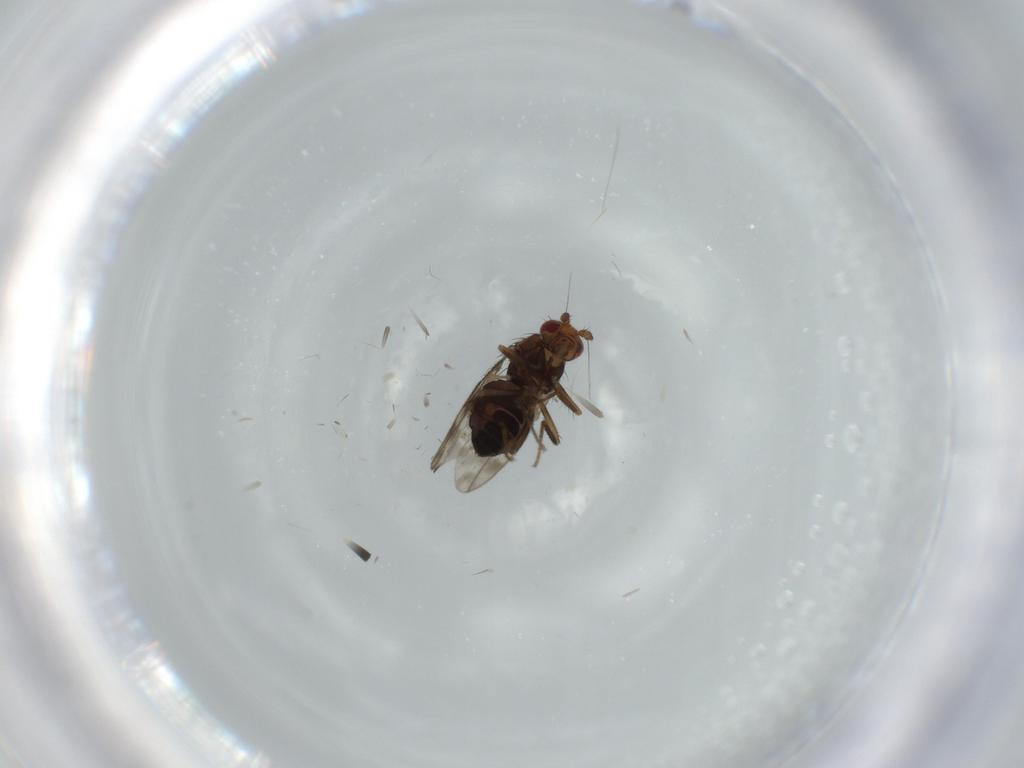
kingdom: Animalia
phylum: Arthropoda
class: Insecta
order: Diptera
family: Sphaeroceridae
